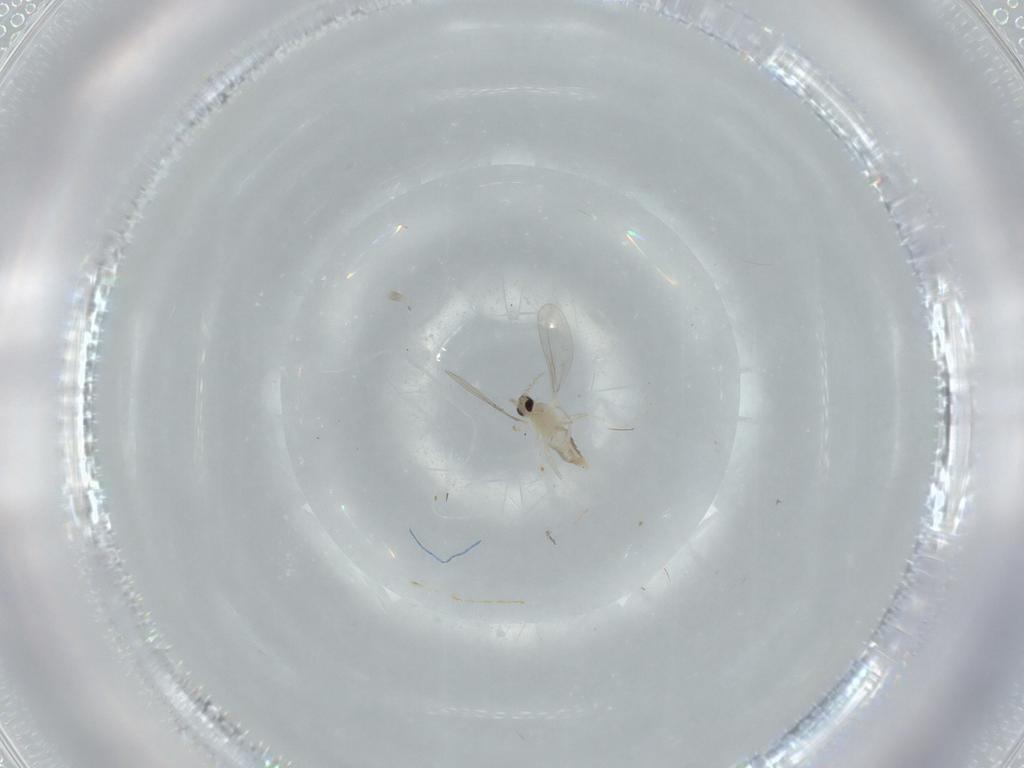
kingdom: Animalia
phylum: Arthropoda
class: Insecta
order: Diptera
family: Cecidomyiidae
